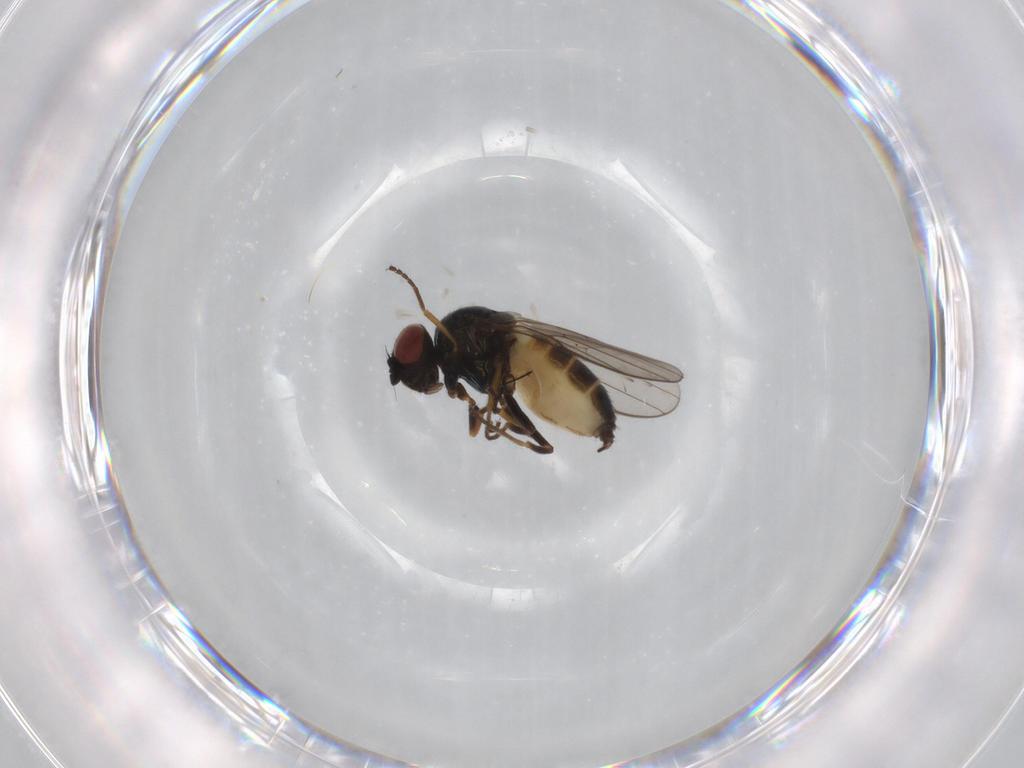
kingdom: Animalia
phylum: Arthropoda
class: Insecta
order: Diptera
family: Chloropidae
